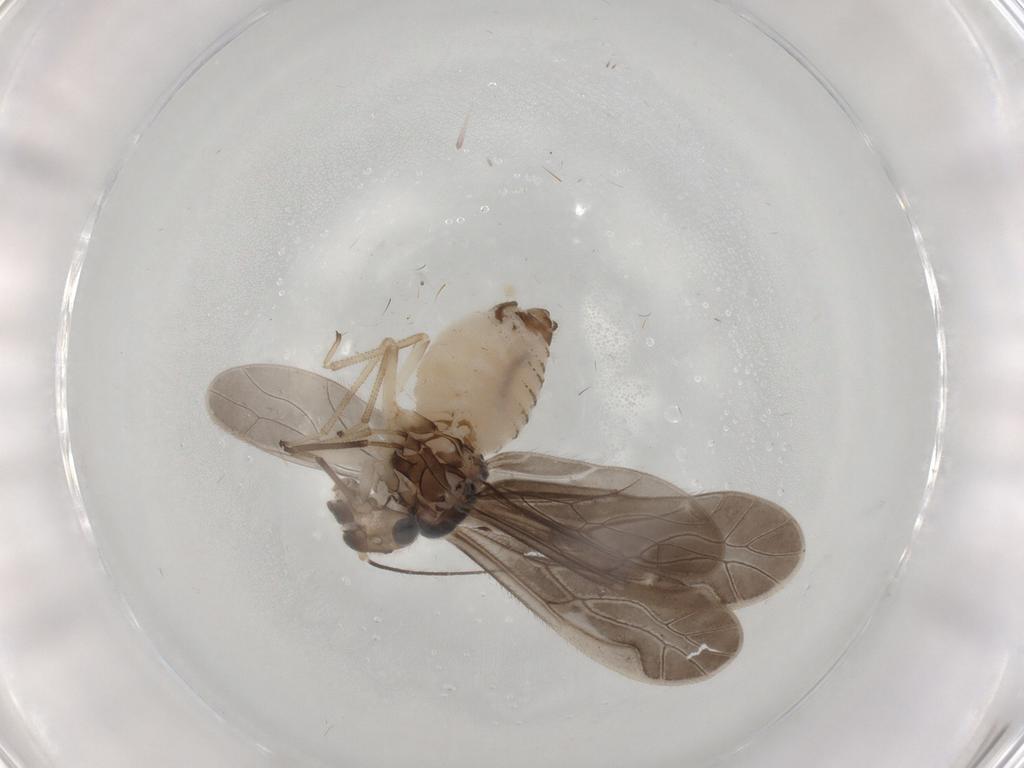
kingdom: Animalia
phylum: Arthropoda
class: Insecta
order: Psocodea
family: Caeciliusidae
